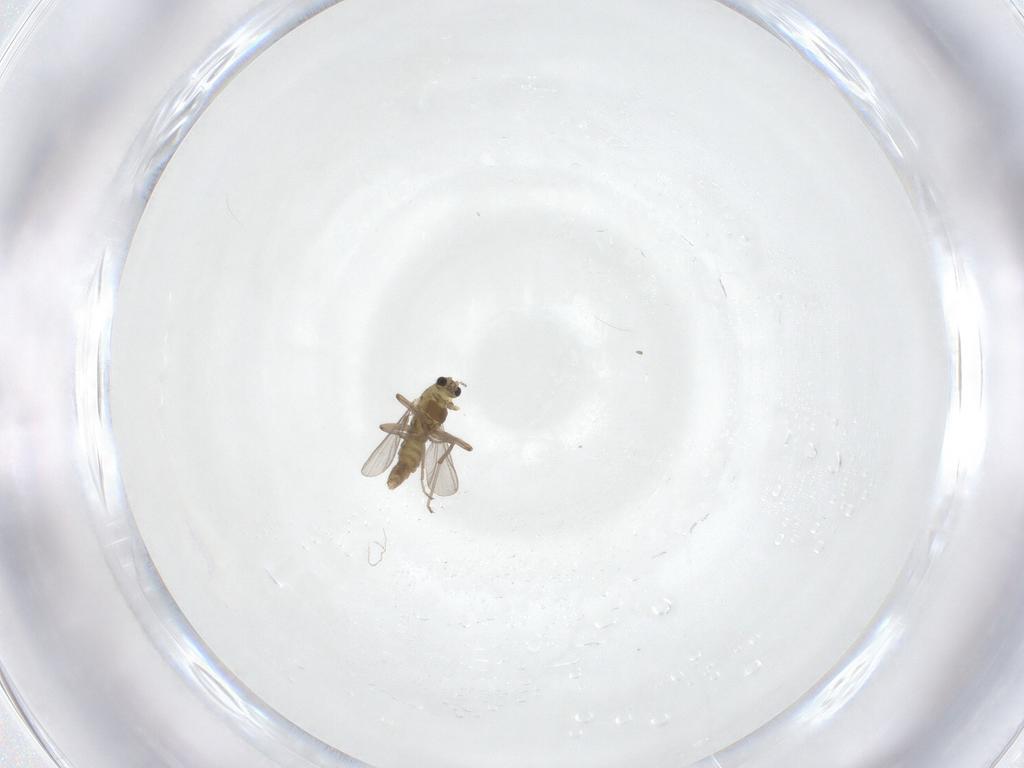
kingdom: Animalia
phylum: Arthropoda
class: Insecta
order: Diptera
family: Chironomidae
